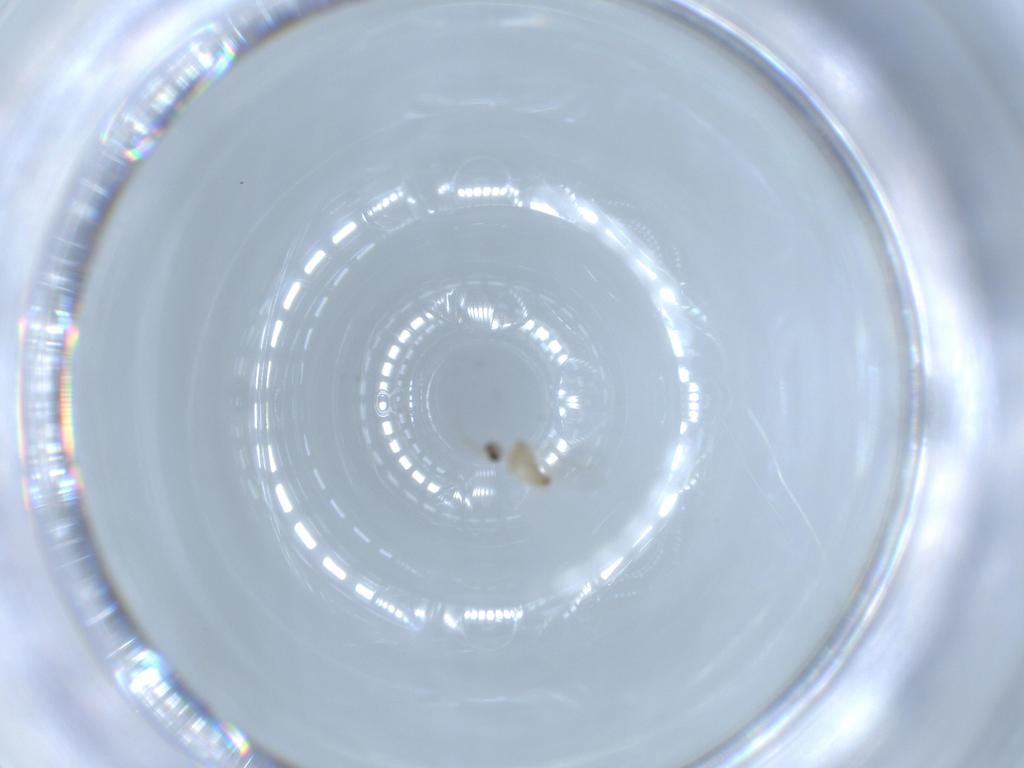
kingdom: Animalia
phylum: Arthropoda
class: Insecta
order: Diptera
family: Cecidomyiidae
